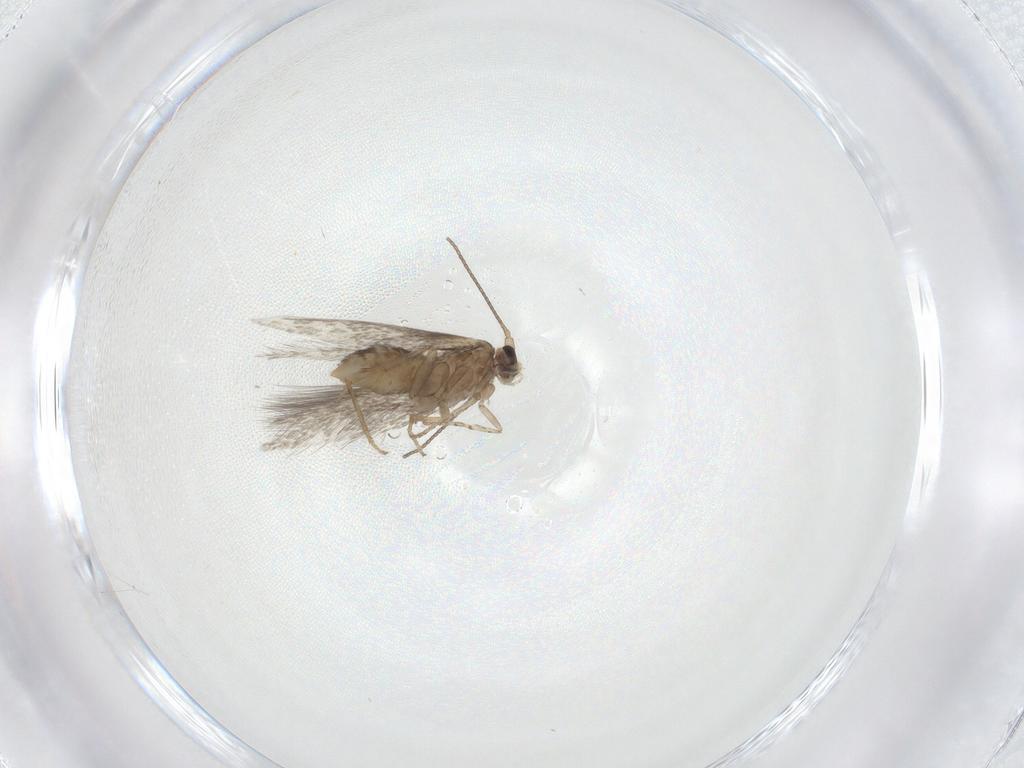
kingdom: Animalia
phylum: Arthropoda
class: Insecta
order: Lepidoptera
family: Nepticulidae
